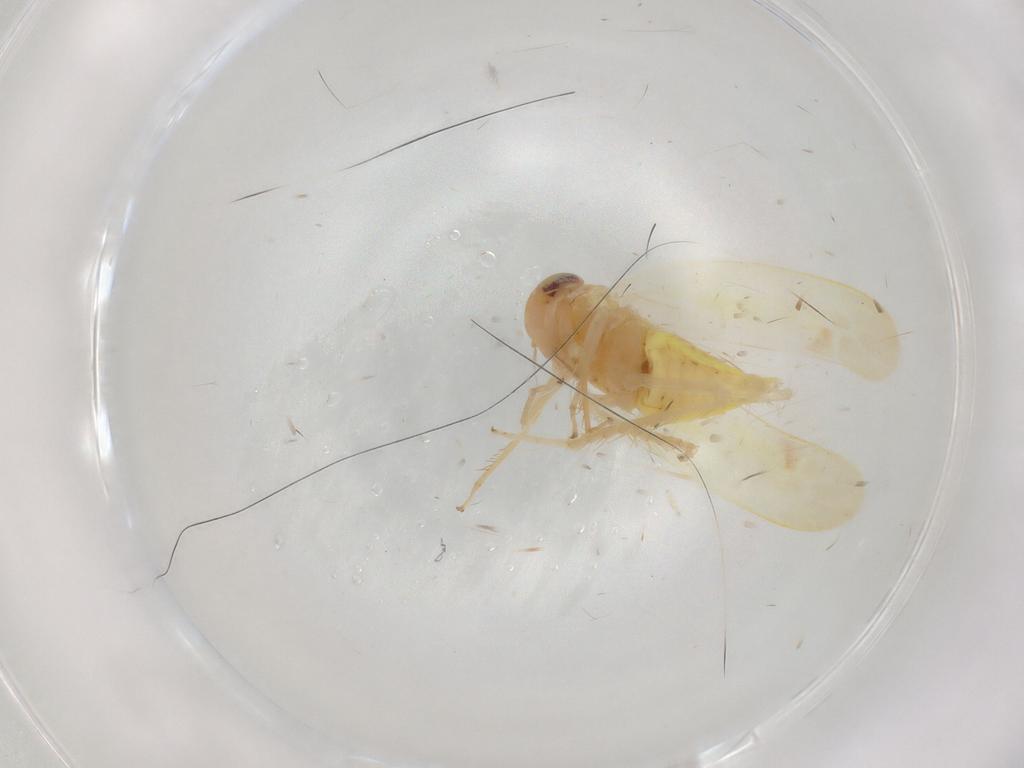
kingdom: Animalia
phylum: Arthropoda
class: Insecta
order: Hemiptera
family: Cicadellidae
